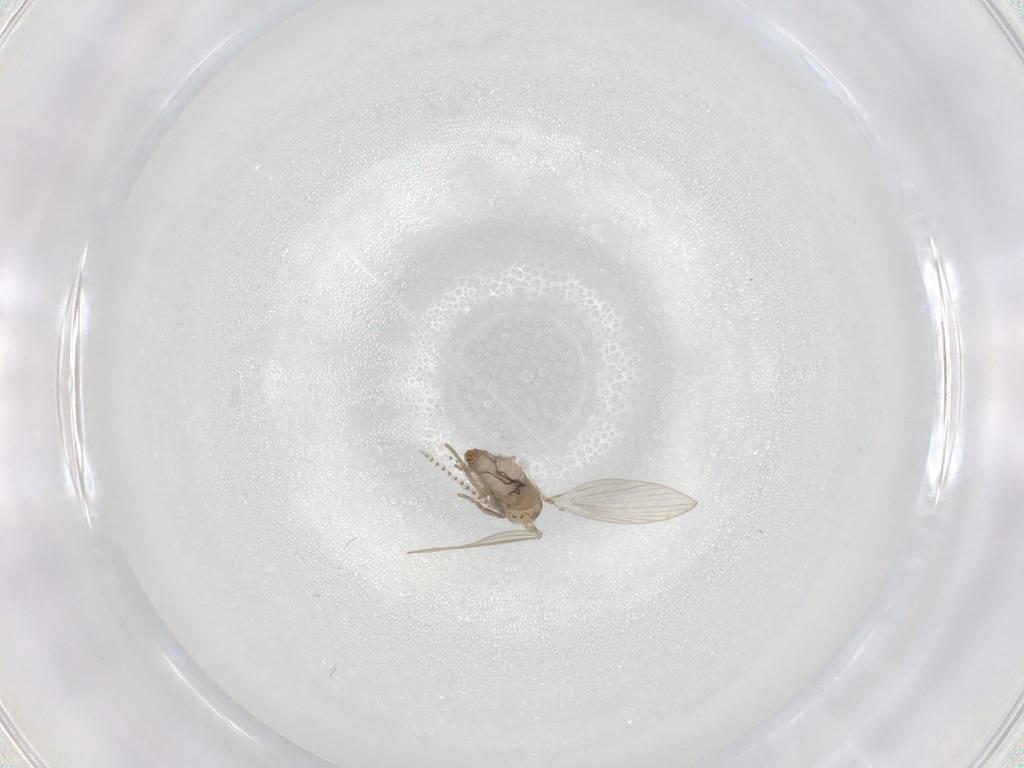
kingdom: Animalia
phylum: Arthropoda
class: Insecta
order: Diptera
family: Psychodidae
